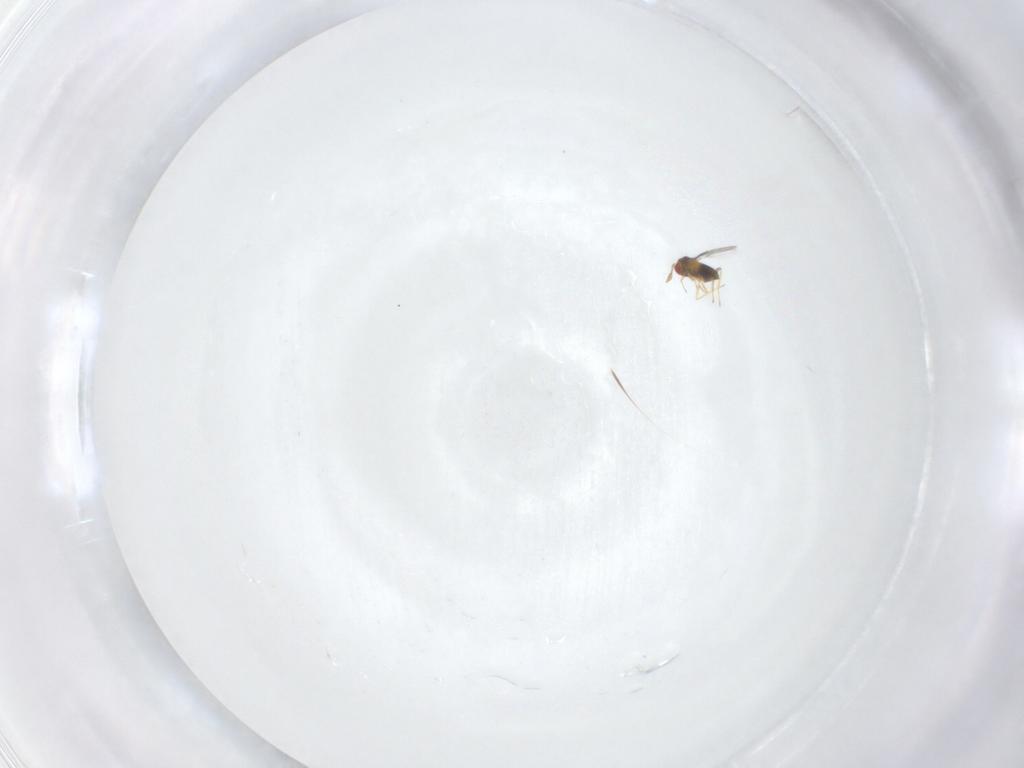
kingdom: Animalia
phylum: Arthropoda
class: Insecta
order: Hymenoptera
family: Trichogrammatidae
